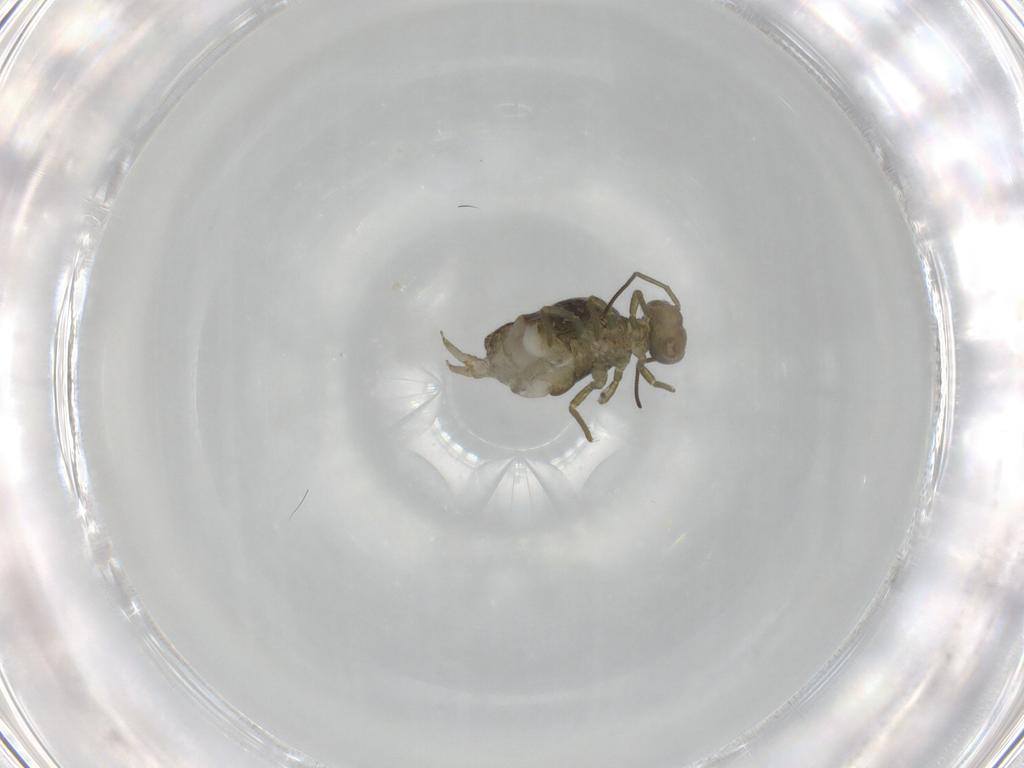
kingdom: Animalia
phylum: Arthropoda
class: Collembola
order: Symphypleona
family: Sminthuridae
